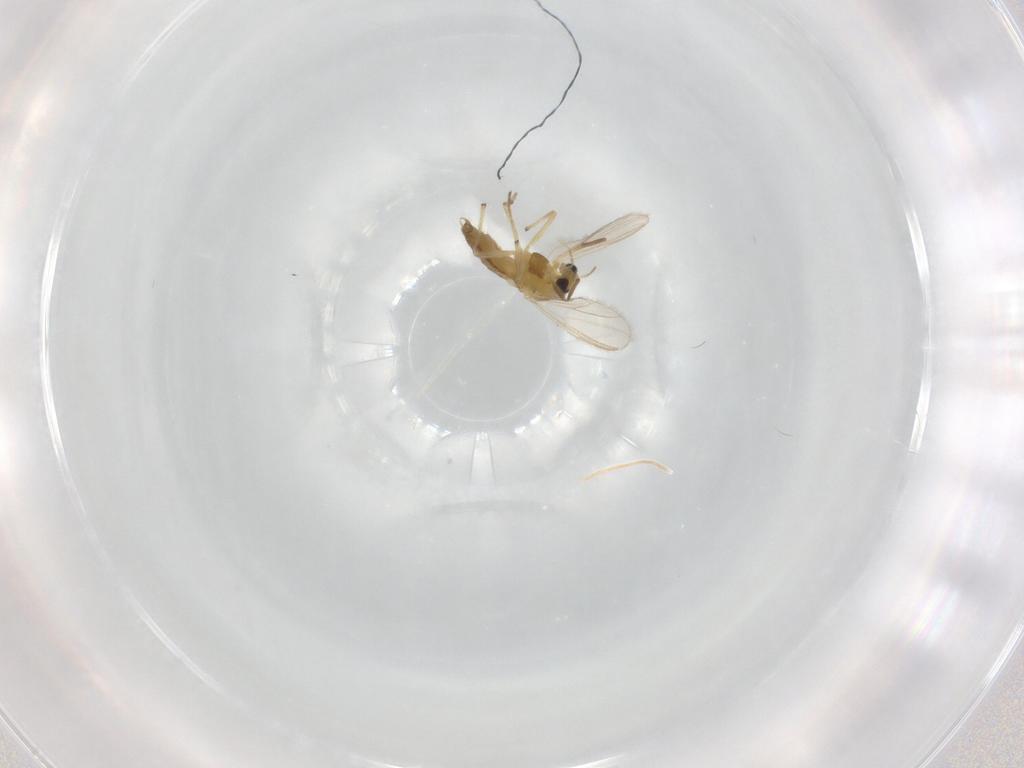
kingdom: Animalia
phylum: Arthropoda
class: Insecta
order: Diptera
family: Chironomidae
